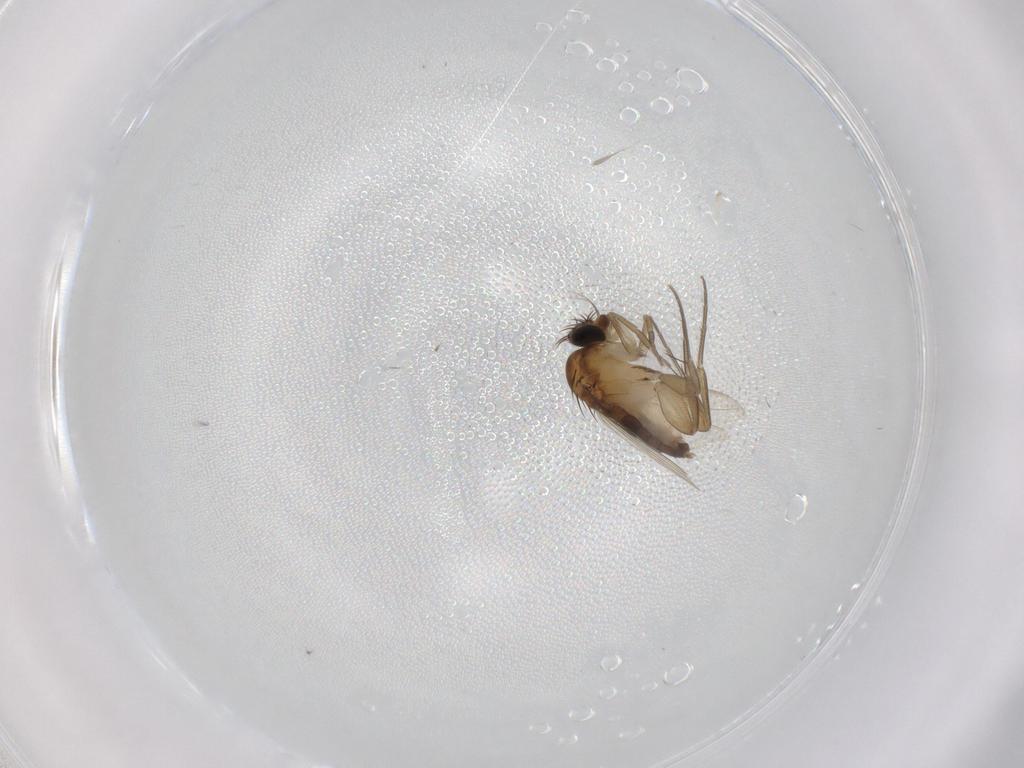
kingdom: Animalia
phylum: Arthropoda
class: Insecta
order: Diptera
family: Phoridae
